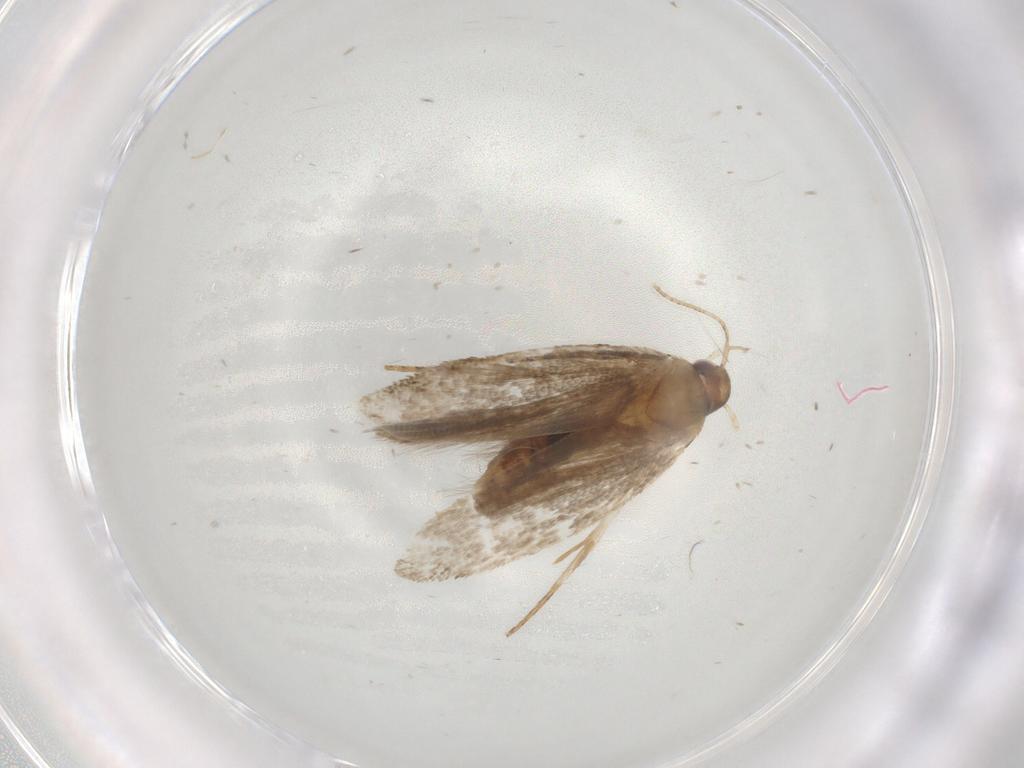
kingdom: Animalia
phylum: Arthropoda
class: Insecta
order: Lepidoptera
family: Gelechiidae
